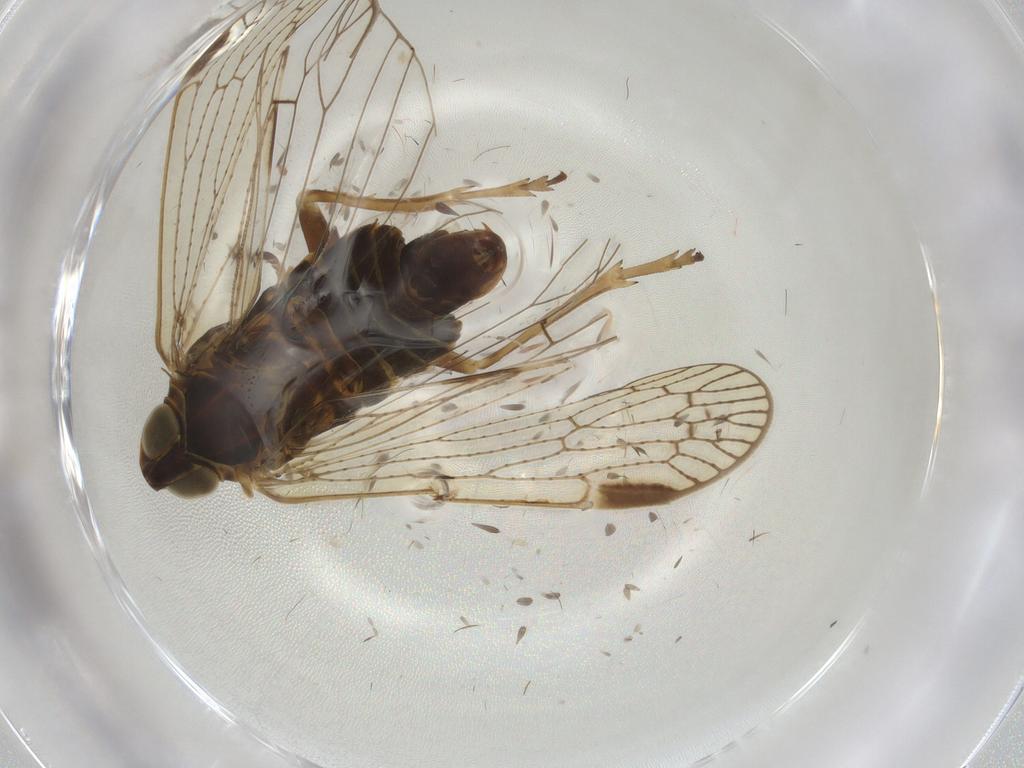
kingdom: Animalia
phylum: Arthropoda
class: Insecta
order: Hemiptera
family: Cixiidae
